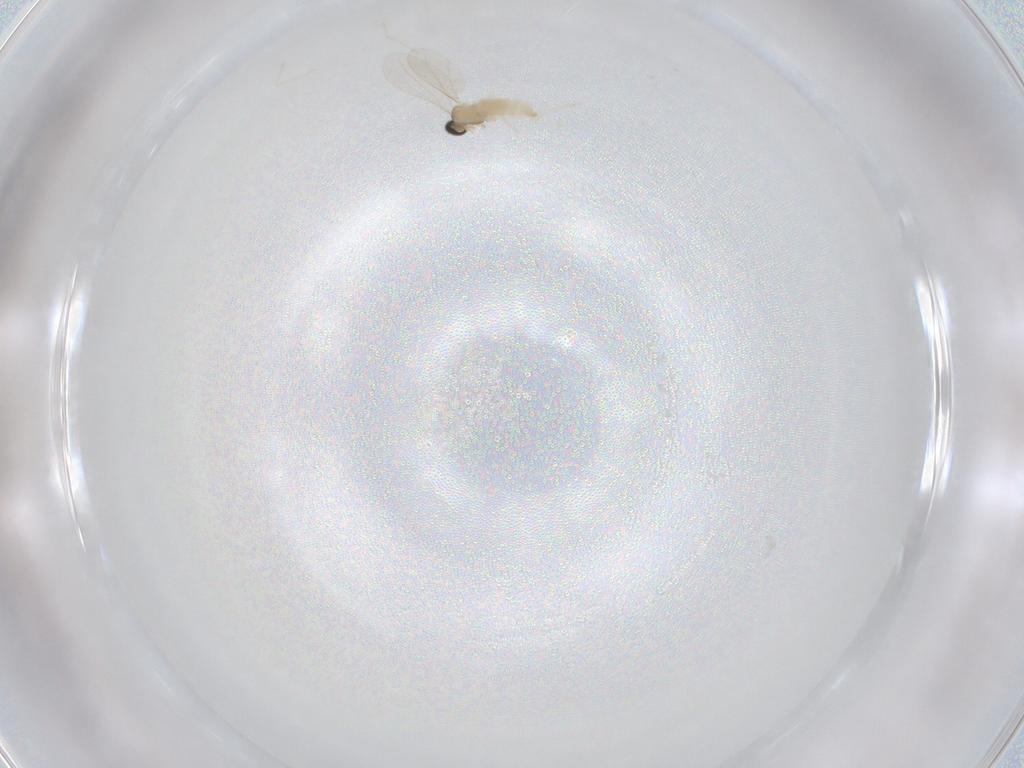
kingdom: Animalia
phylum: Arthropoda
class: Insecta
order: Diptera
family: Cecidomyiidae
